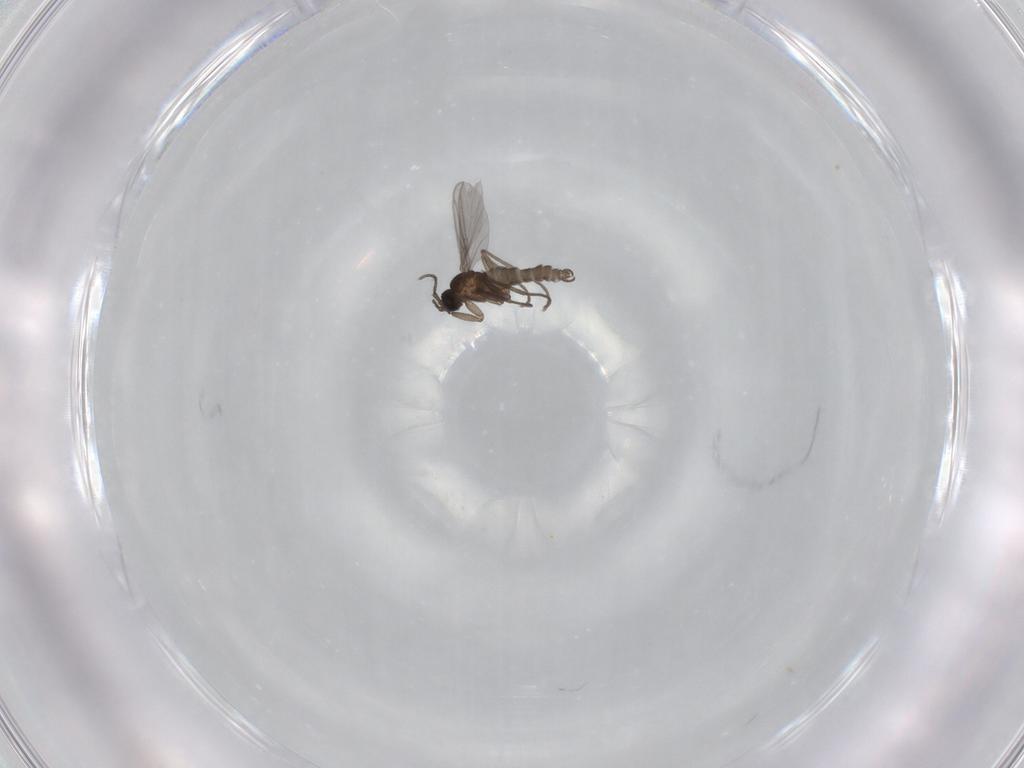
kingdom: Animalia
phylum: Arthropoda
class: Insecta
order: Diptera
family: Sciaridae
